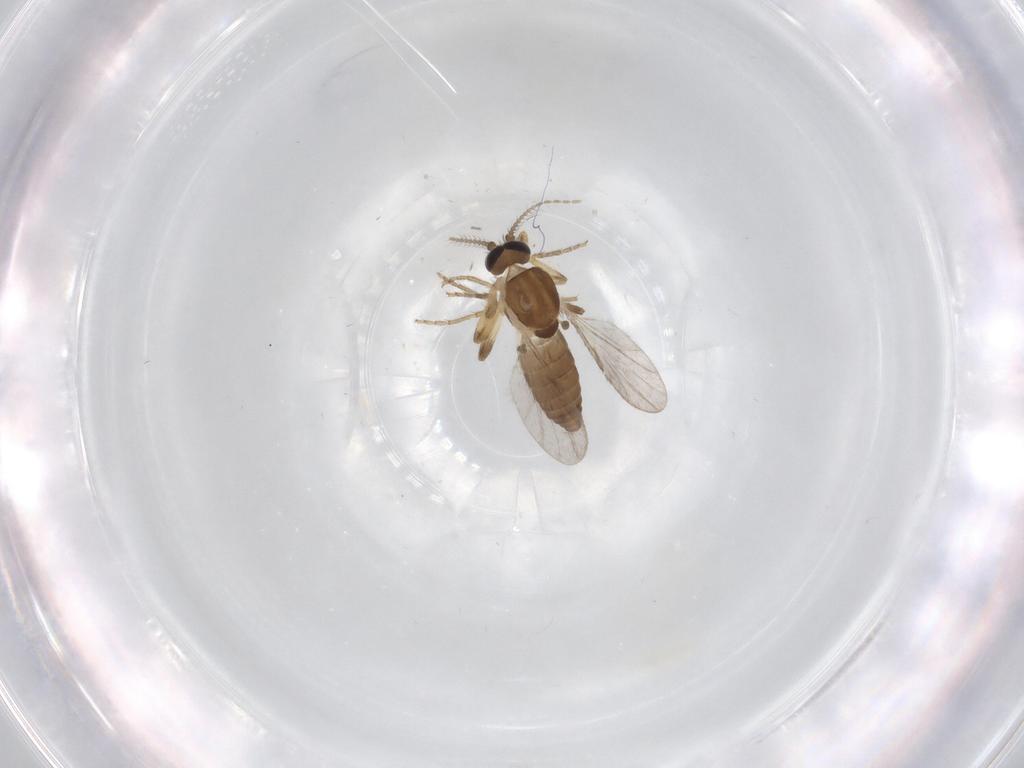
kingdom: Animalia
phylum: Arthropoda
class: Insecta
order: Diptera
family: Ceratopogonidae
